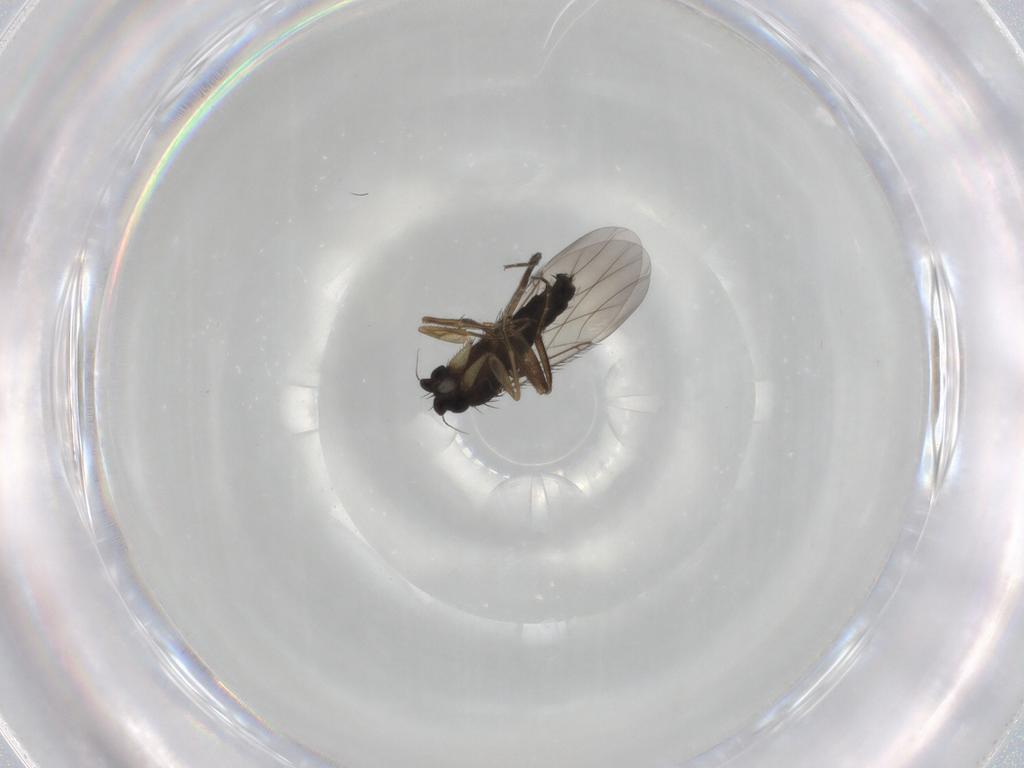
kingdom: Animalia
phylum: Arthropoda
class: Insecta
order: Diptera
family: Phoridae
